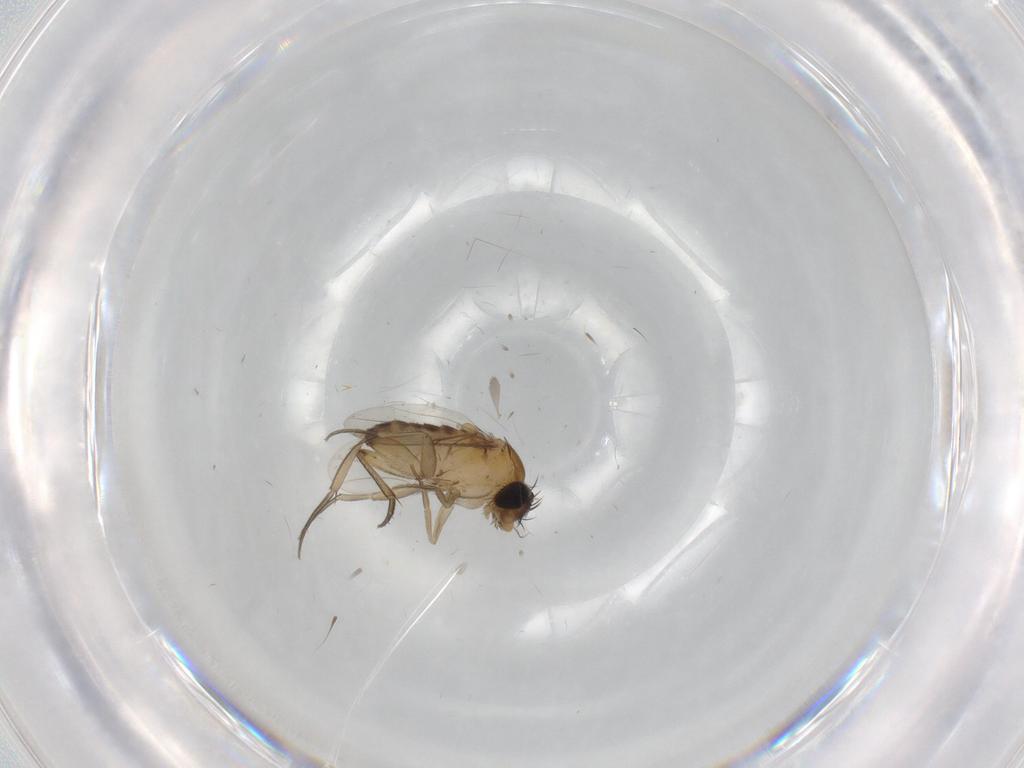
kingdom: Animalia
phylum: Arthropoda
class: Insecta
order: Diptera
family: Phoridae
